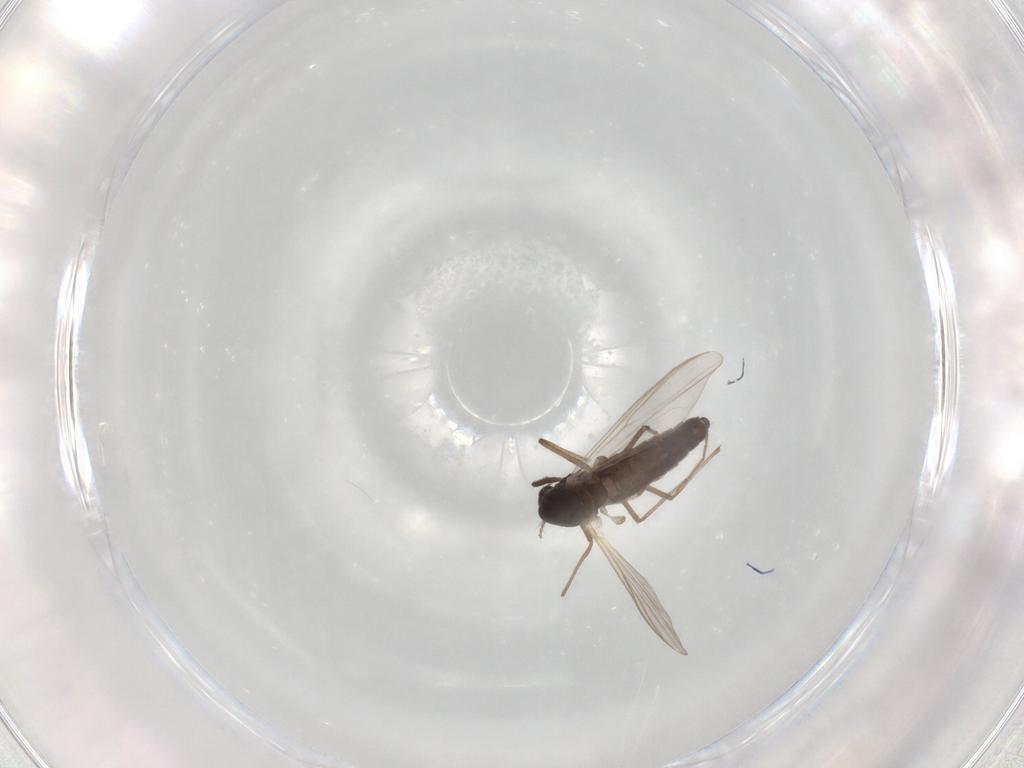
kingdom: Animalia
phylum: Arthropoda
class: Insecta
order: Diptera
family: Chironomidae
